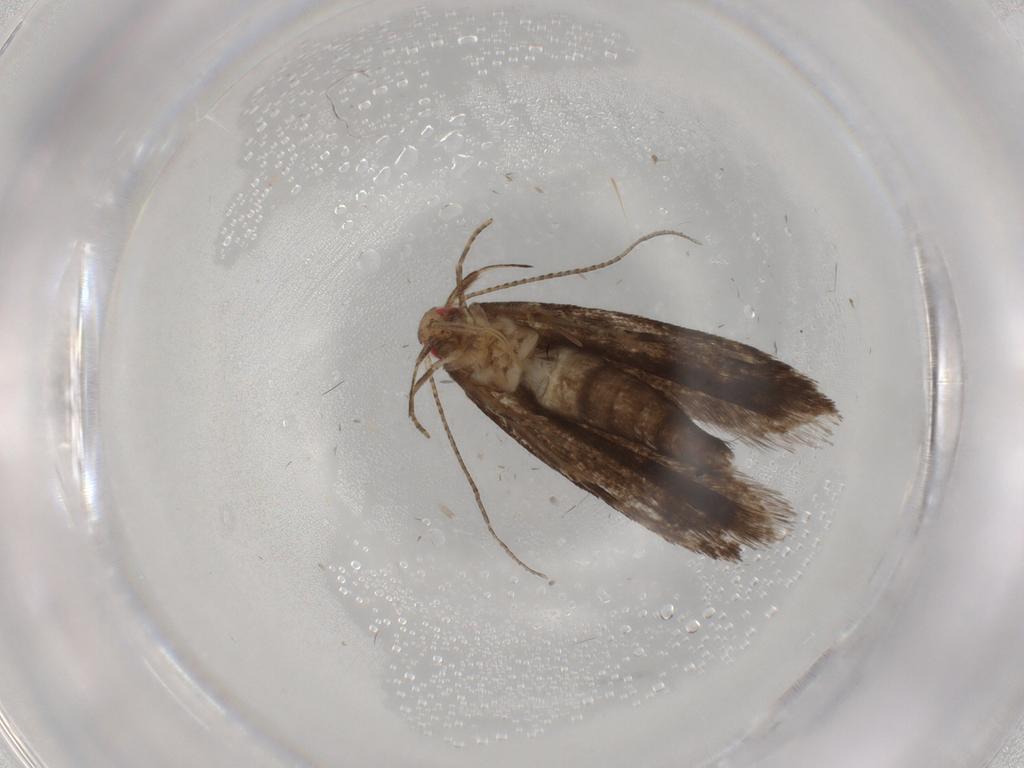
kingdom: Animalia
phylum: Arthropoda
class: Insecta
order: Lepidoptera
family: Gelechiidae
